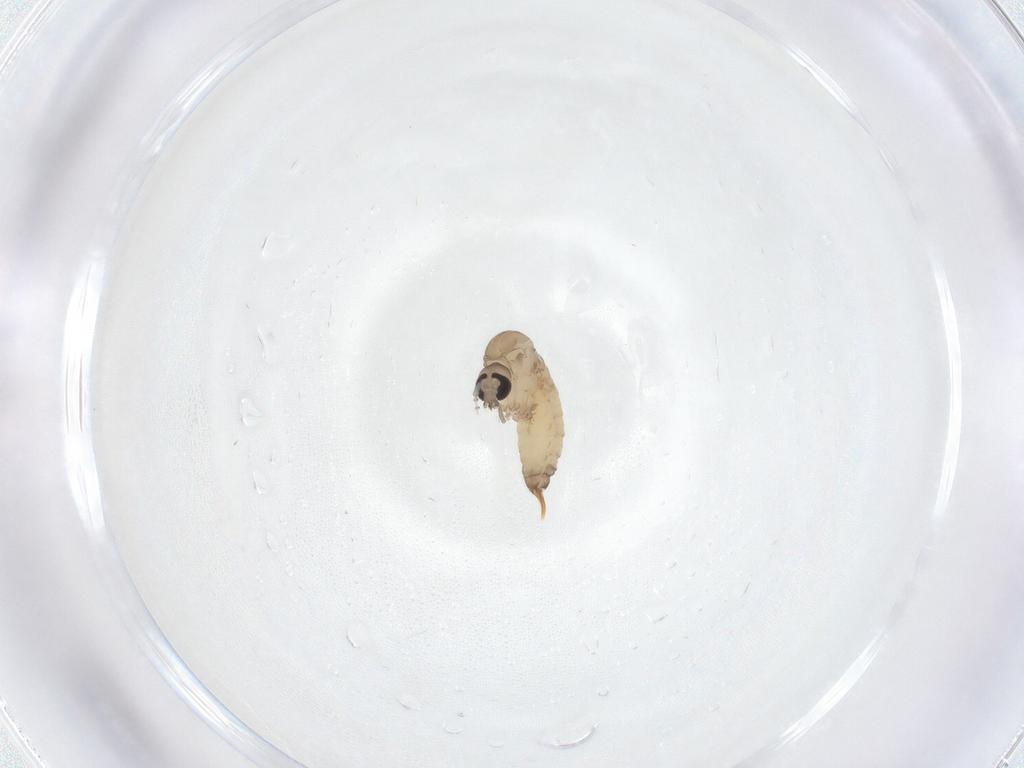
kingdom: Animalia
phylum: Arthropoda
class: Insecta
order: Diptera
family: Psychodidae
